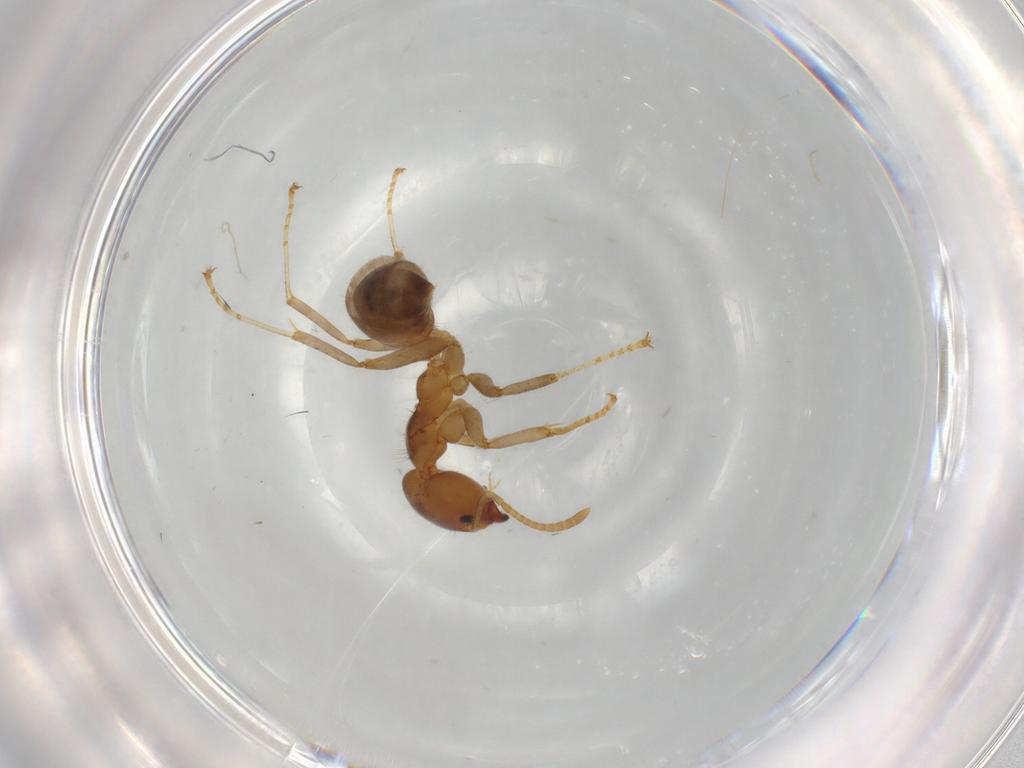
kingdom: Animalia
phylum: Arthropoda
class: Insecta
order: Hymenoptera
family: Formicidae
